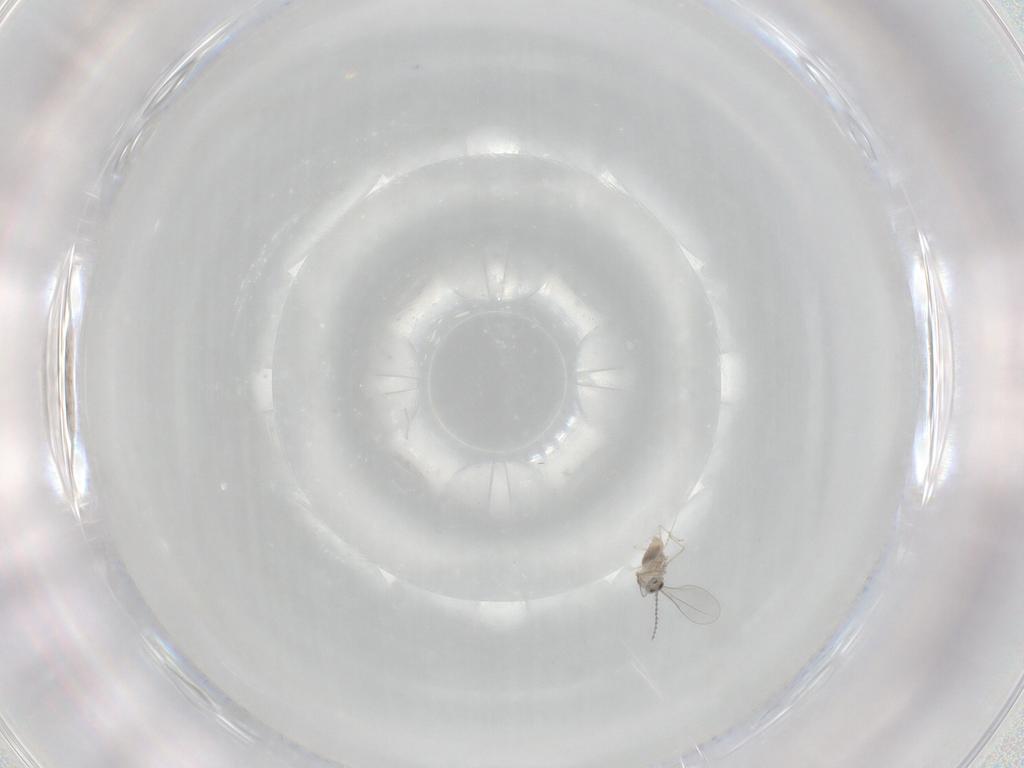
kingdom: Animalia
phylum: Arthropoda
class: Insecta
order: Diptera
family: Cecidomyiidae
